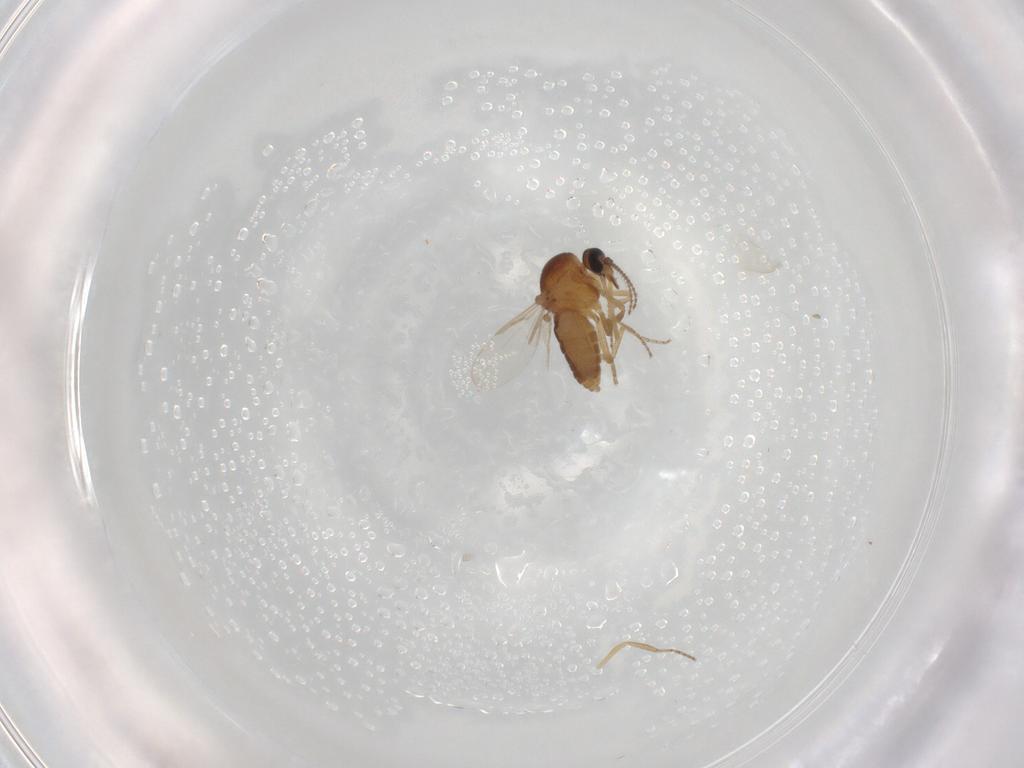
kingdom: Animalia
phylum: Arthropoda
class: Insecta
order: Diptera
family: Ceratopogonidae
